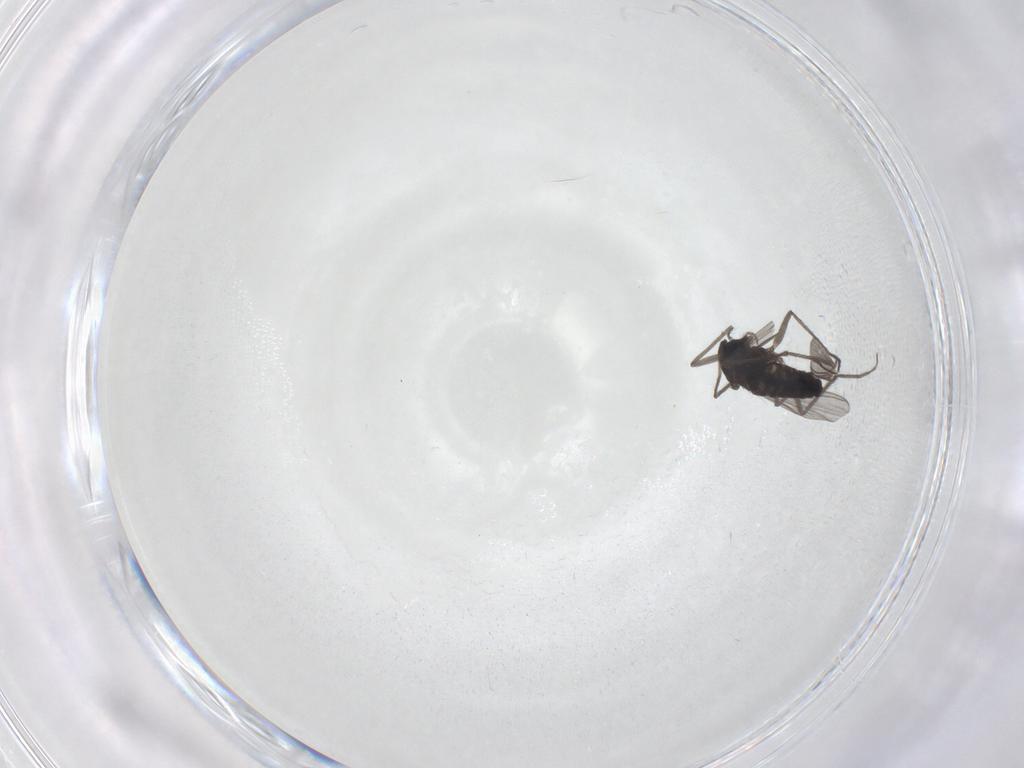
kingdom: Animalia
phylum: Arthropoda
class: Insecta
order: Diptera
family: Chironomidae
